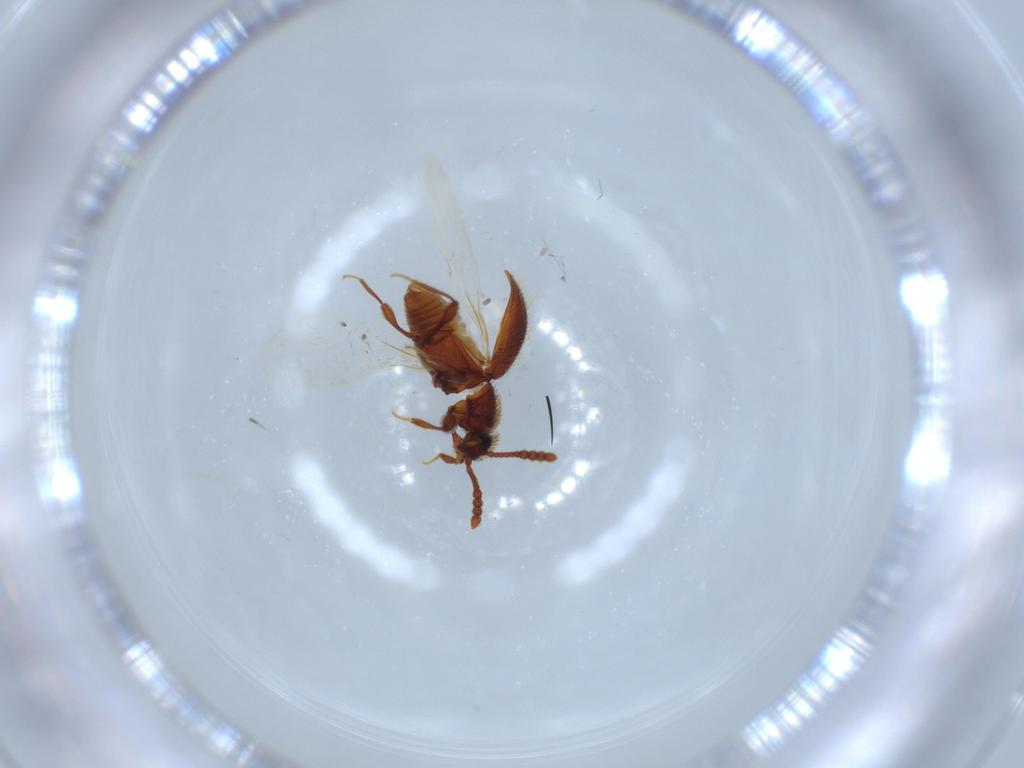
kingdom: Animalia
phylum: Arthropoda
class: Insecta
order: Coleoptera
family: Staphylinidae
